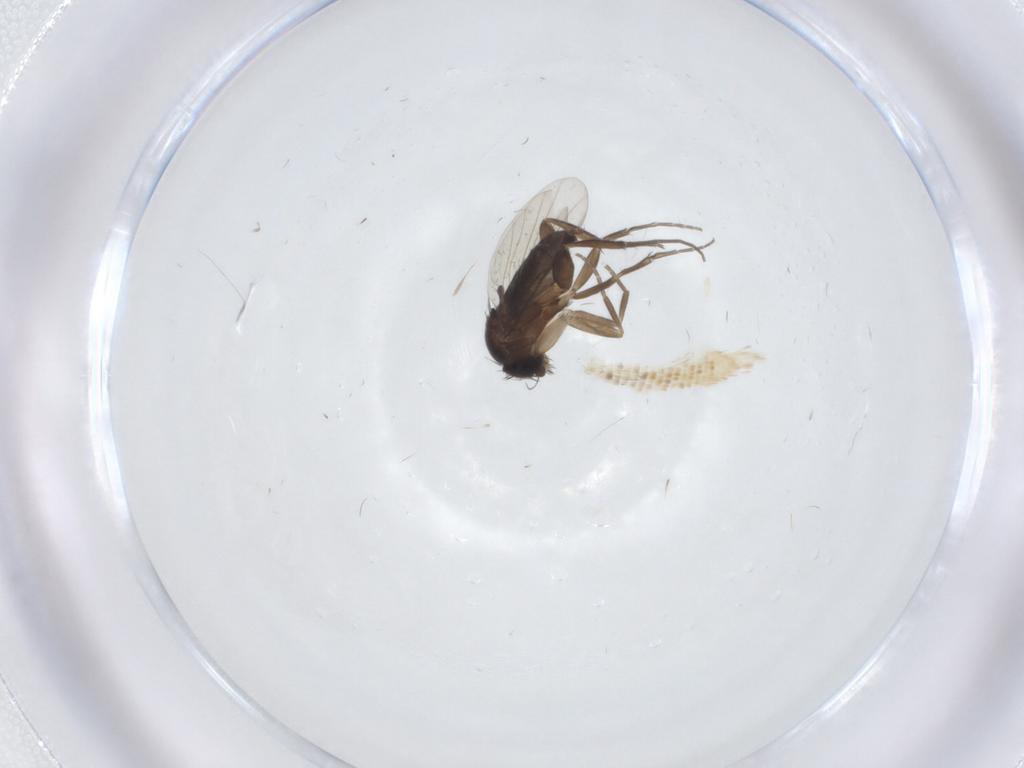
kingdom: Animalia
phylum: Arthropoda
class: Insecta
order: Diptera
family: Phoridae
